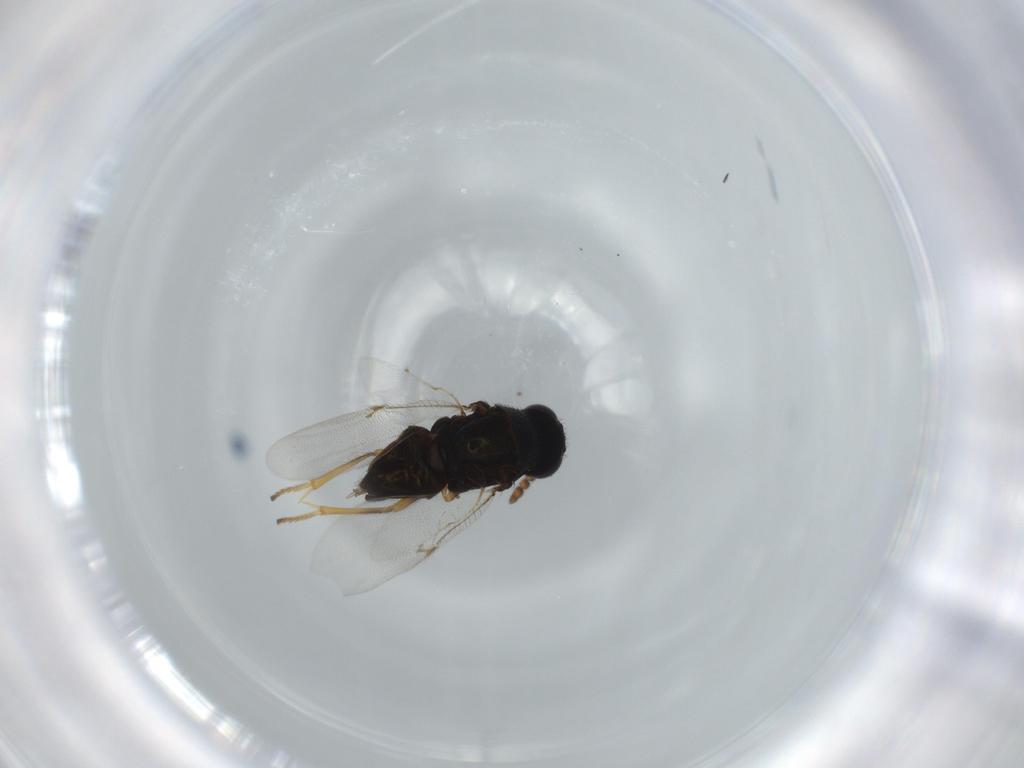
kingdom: Animalia
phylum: Arthropoda
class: Insecta
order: Hymenoptera
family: Encyrtidae
